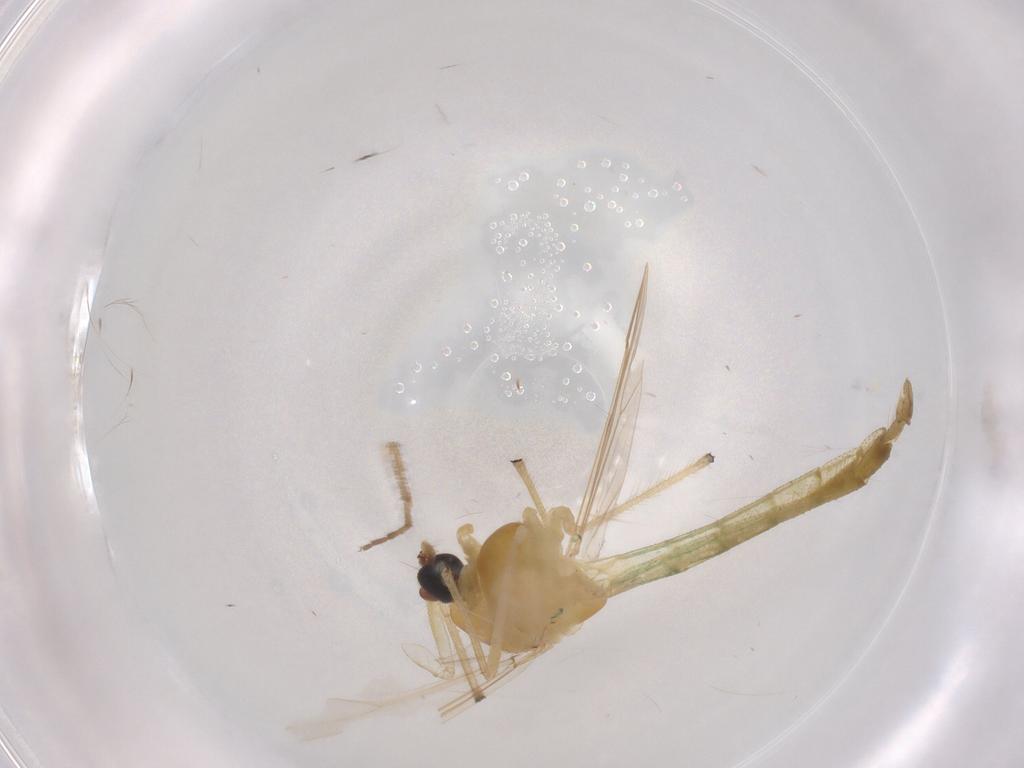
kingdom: Animalia
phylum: Arthropoda
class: Insecta
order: Diptera
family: Chironomidae
